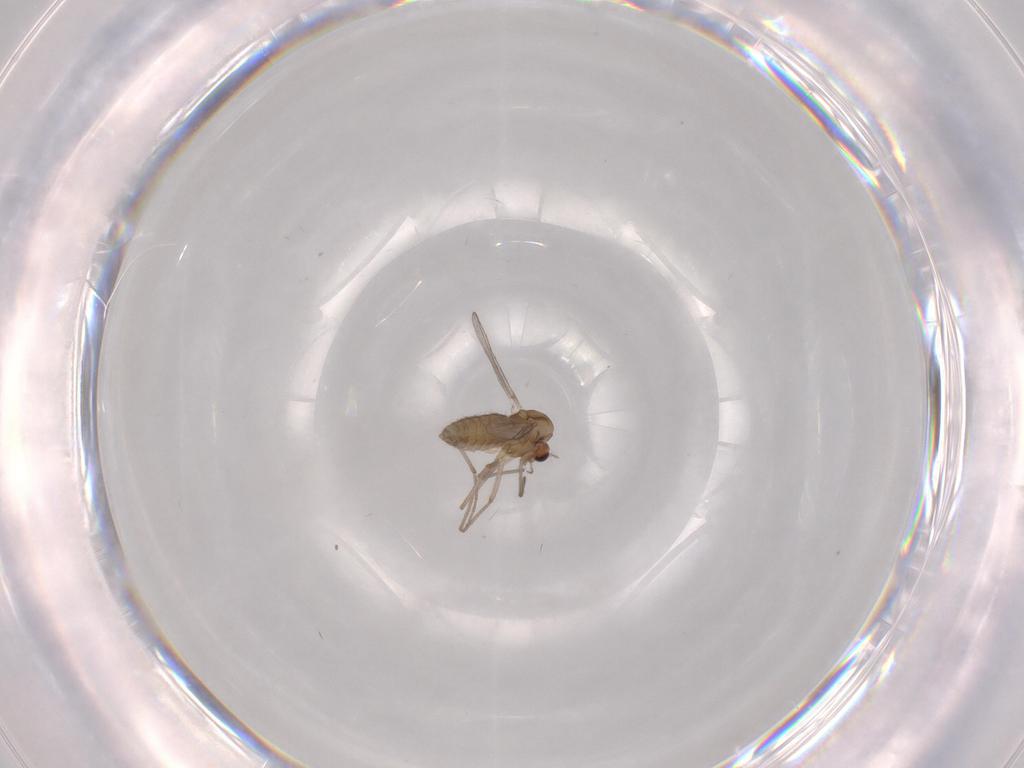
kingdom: Animalia
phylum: Arthropoda
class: Insecta
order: Diptera
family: Chironomidae
